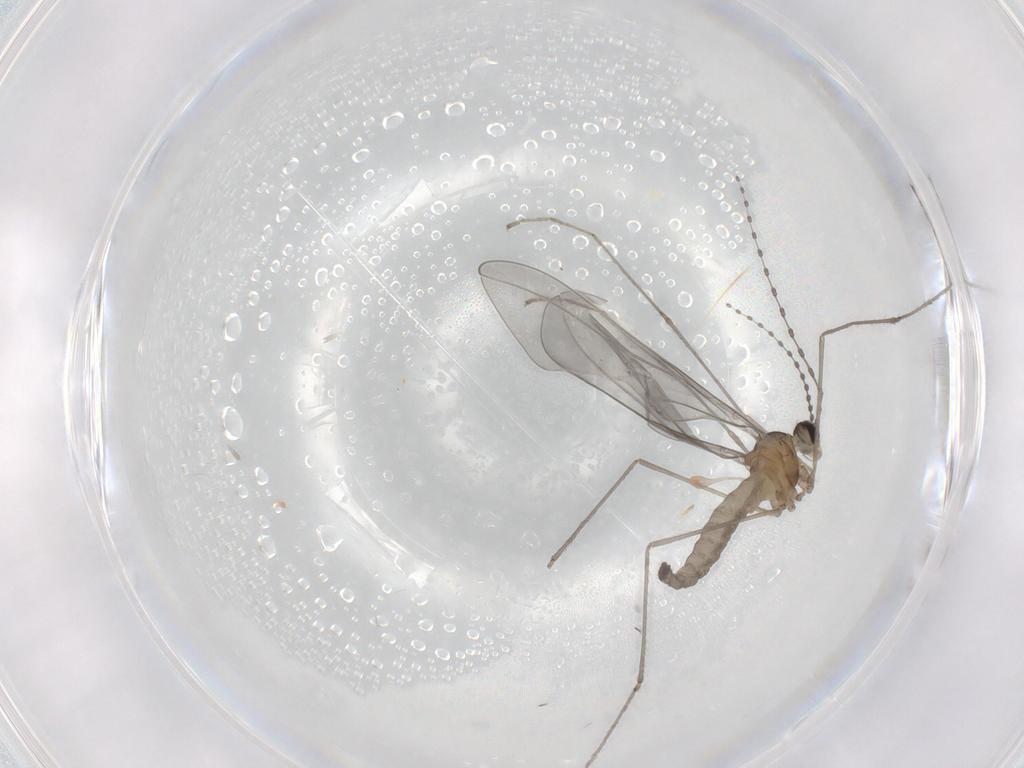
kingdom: Animalia
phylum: Arthropoda
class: Insecta
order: Diptera
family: Cecidomyiidae
